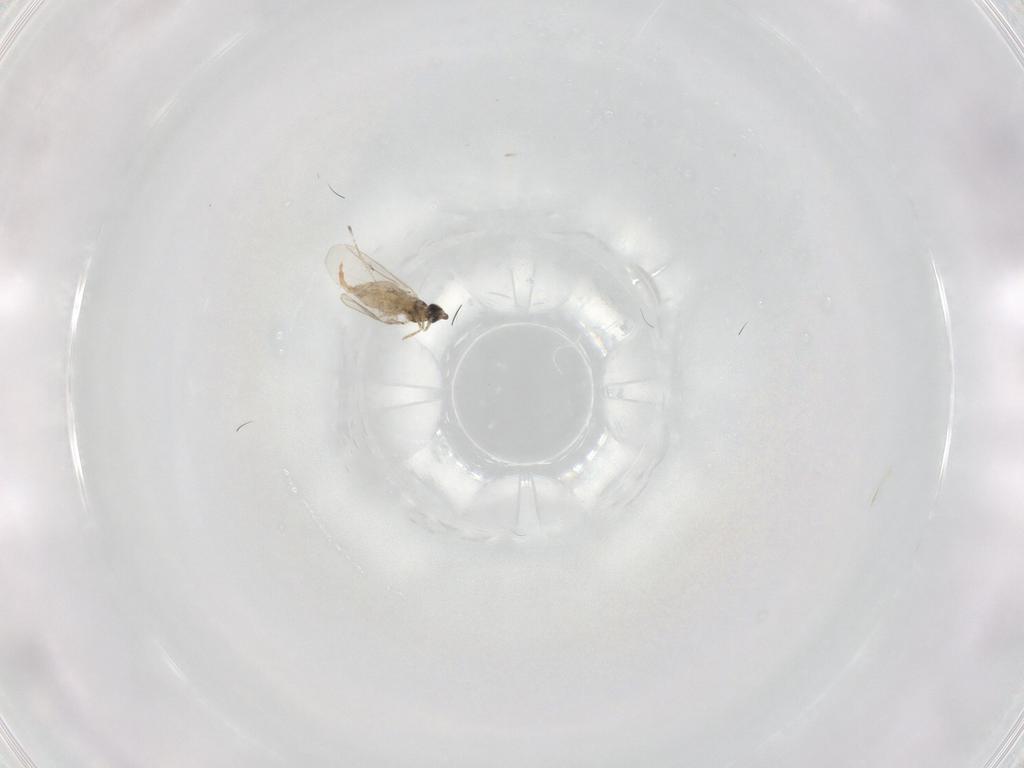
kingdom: Animalia
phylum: Arthropoda
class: Insecta
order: Diptera
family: Cecidomyiidae
